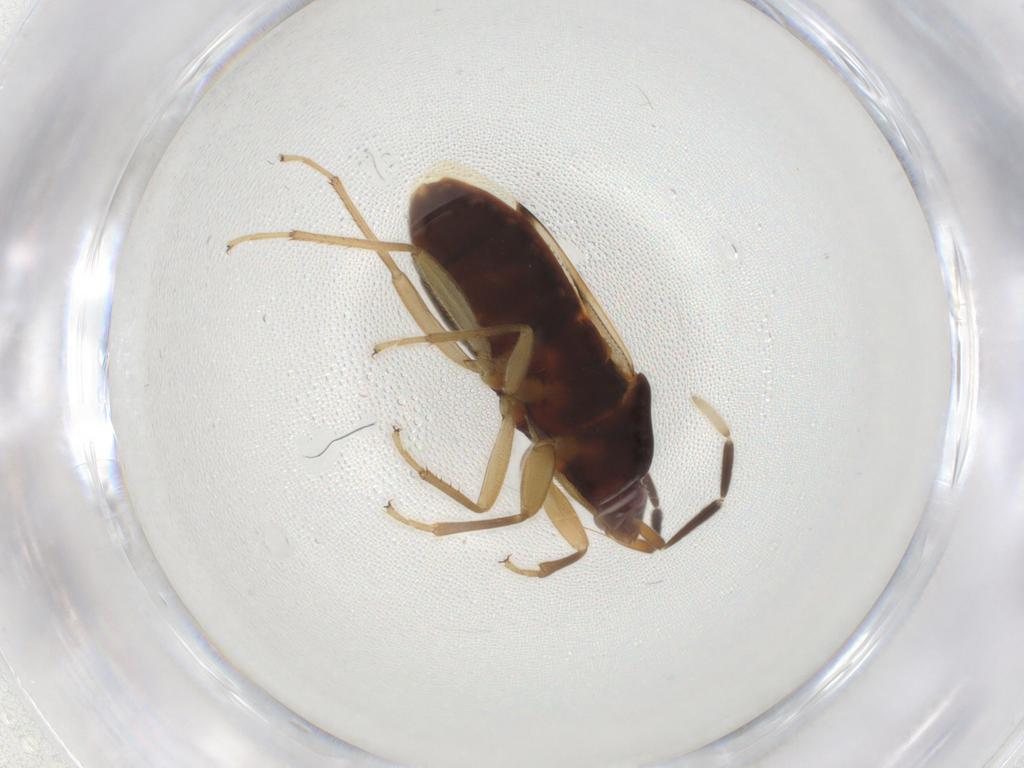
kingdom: Animalia
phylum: Arthropoda
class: Insecta
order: Hemiptera
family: Rhyparochromidae
